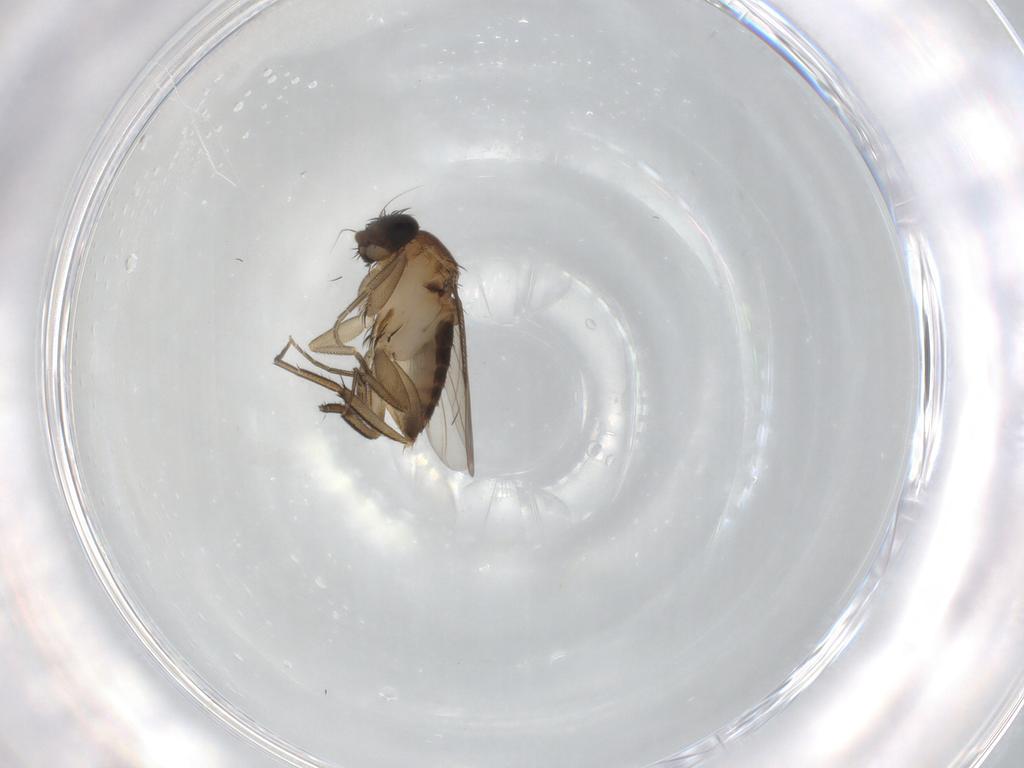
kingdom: Animalia
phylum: Arthropoda
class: Insecta
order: Diptera
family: Phoridae
